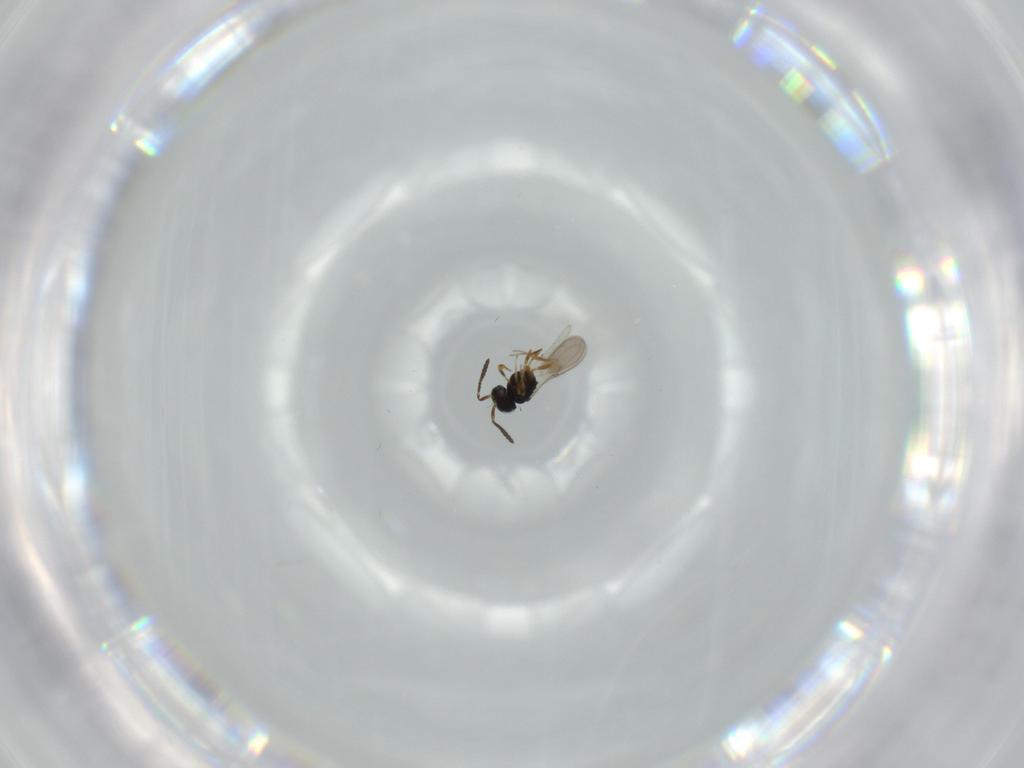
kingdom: Animalia
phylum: Arthropoda
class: Insecta
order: Hymenoptera
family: Scelionidae
